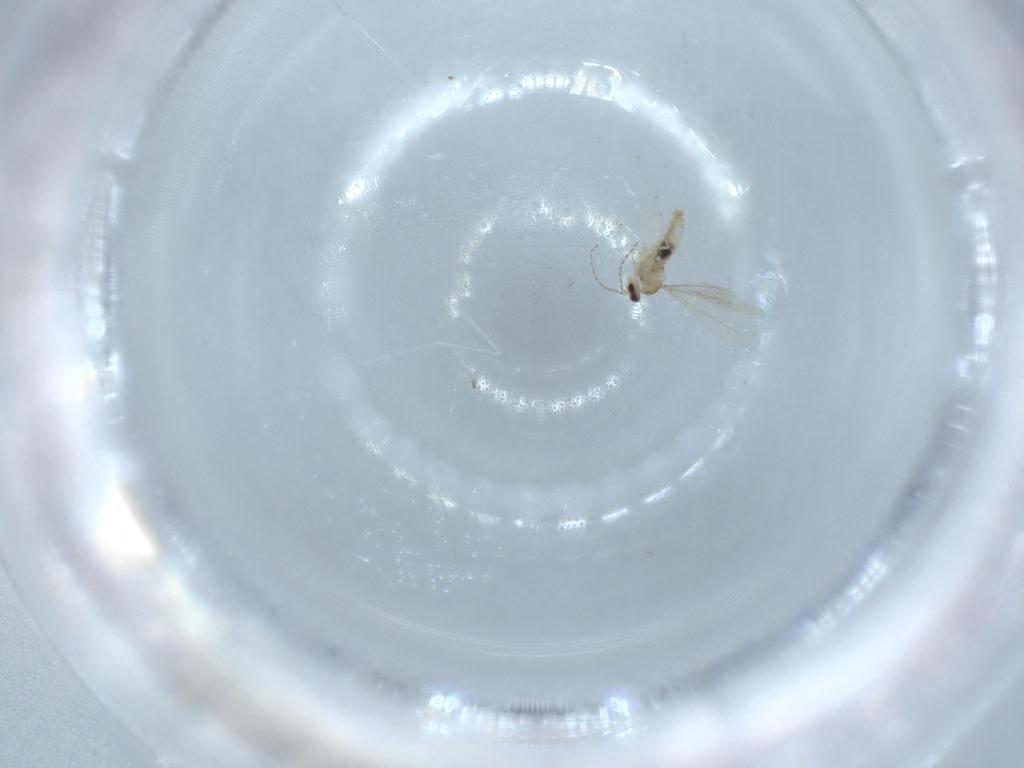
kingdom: Animalia
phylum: Arthropoda
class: Insecta
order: Diptera
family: Cecidomyiidae
